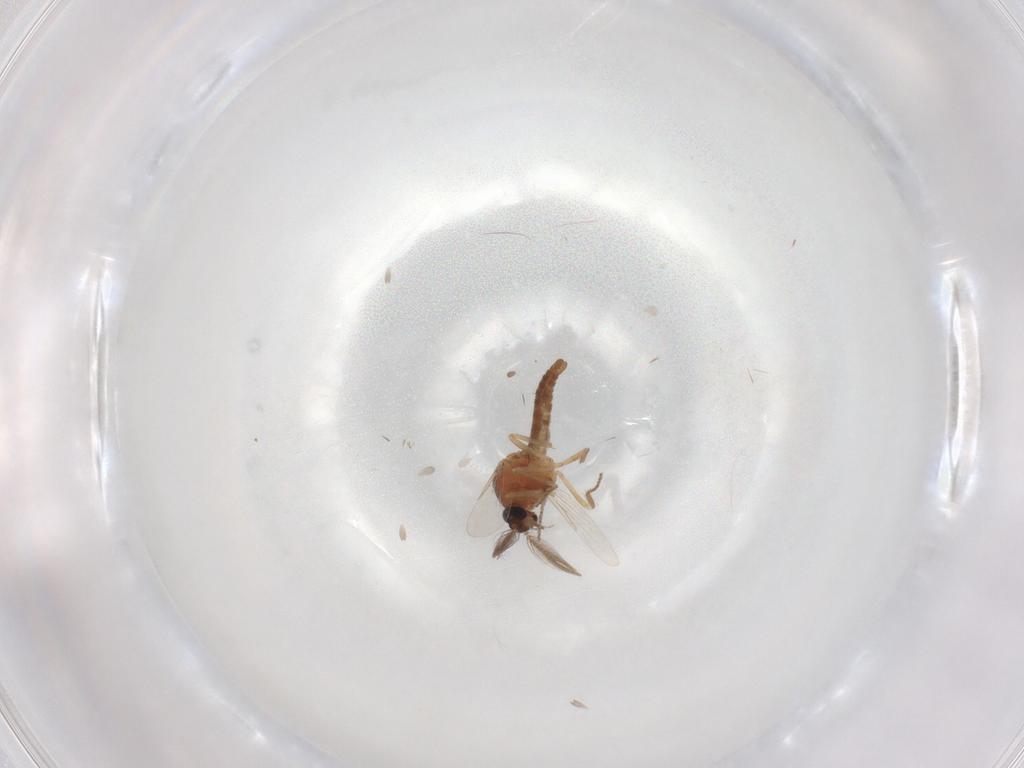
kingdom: Animalia
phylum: Arthropoda
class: Insecta
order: Diptera
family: Ceratopogonidae
